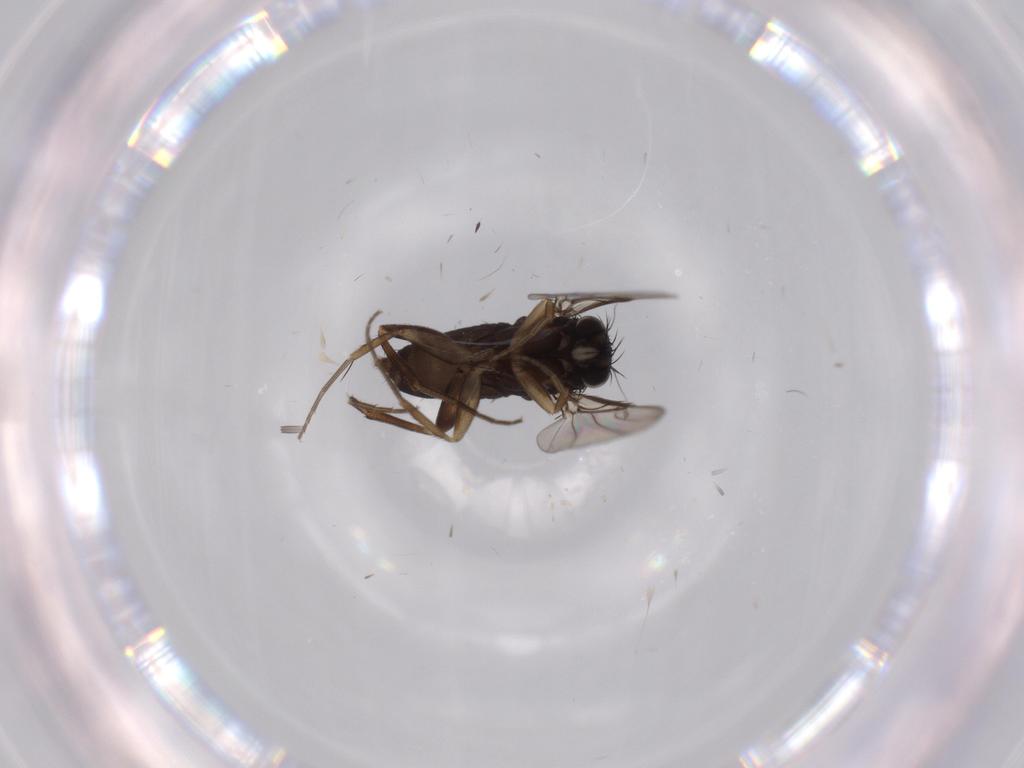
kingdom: Animalia
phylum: Arthropoda
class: Insecta
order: Diptera
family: Phoridae
